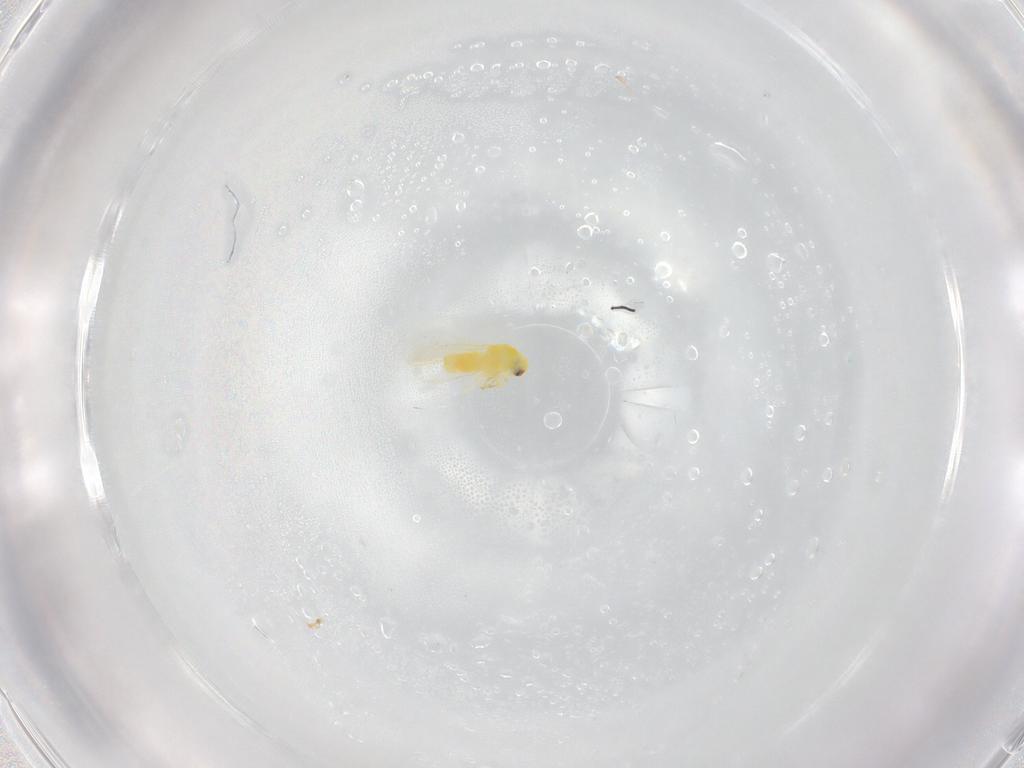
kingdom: Animalia
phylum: Arthropoda
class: Insecta
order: Hemiptera
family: Aleyrodidae
